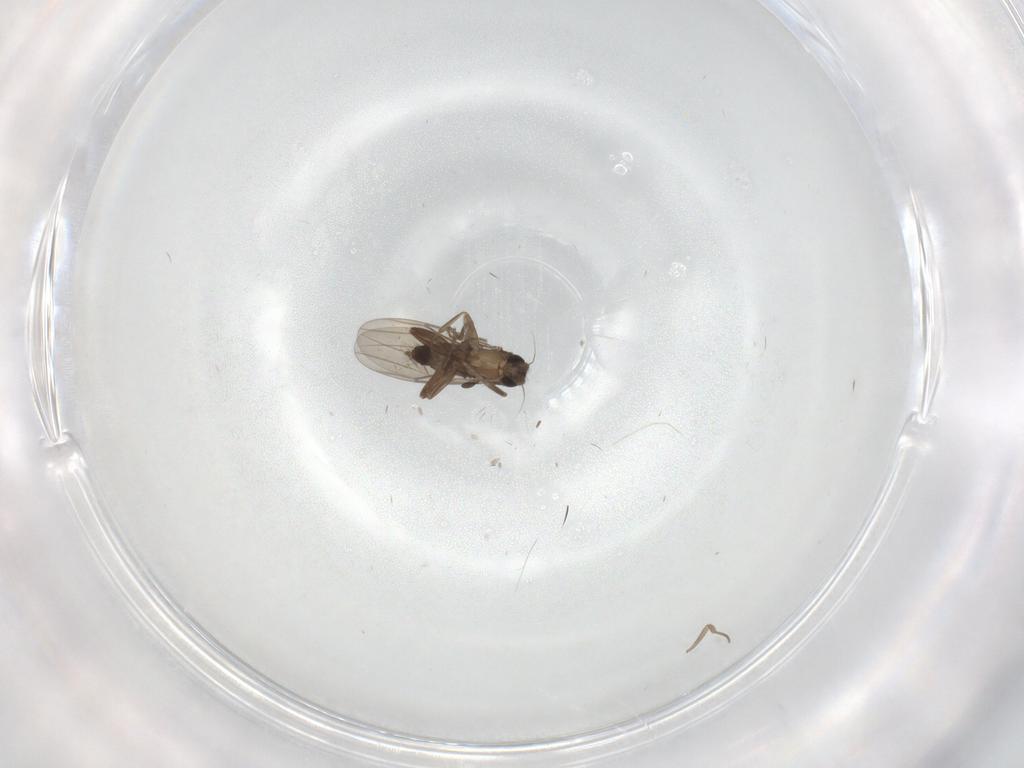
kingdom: Animalia
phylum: Arthropoda
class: Insecta
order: Diptera
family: Phoridae
